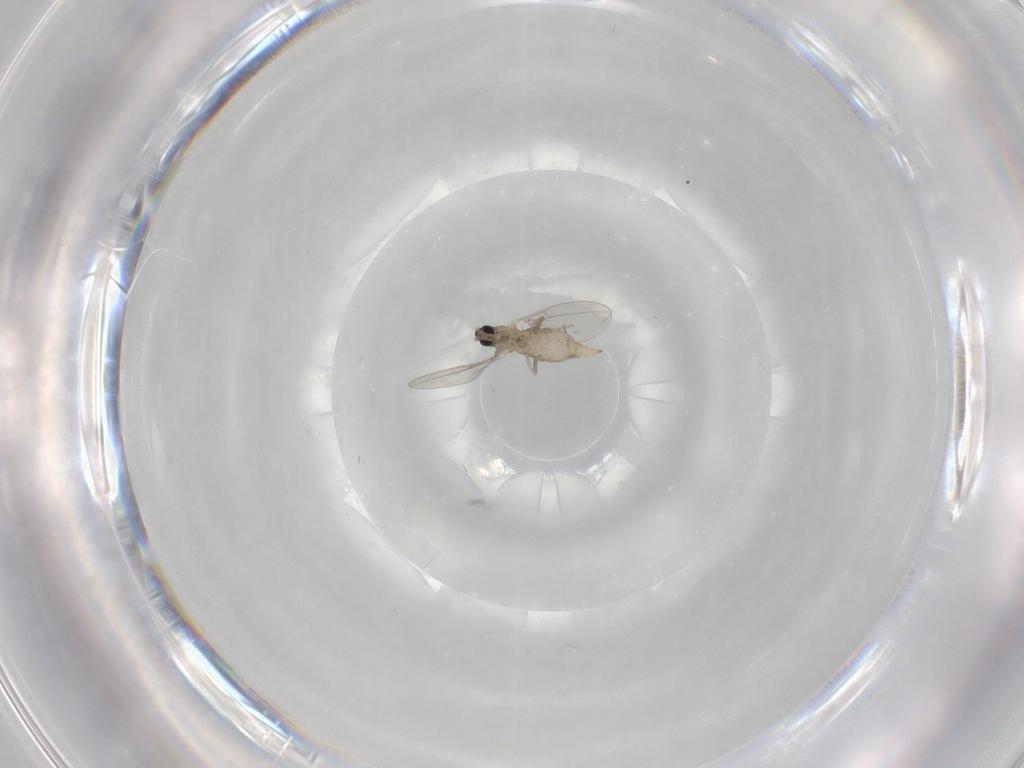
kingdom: Animalia
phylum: Arthropoda
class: Insecta
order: Diptera
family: Cecidomyiidae
